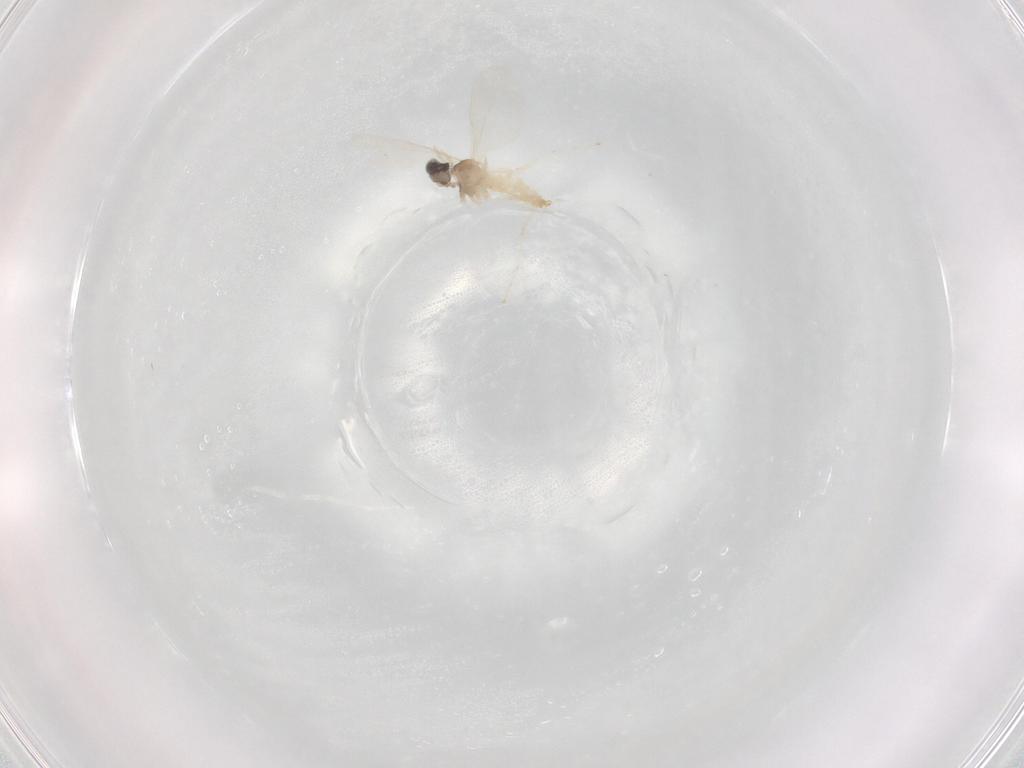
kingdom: Animalia
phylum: Arthropoda
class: Insecta
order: Diptera
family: Cecidomyiidae
